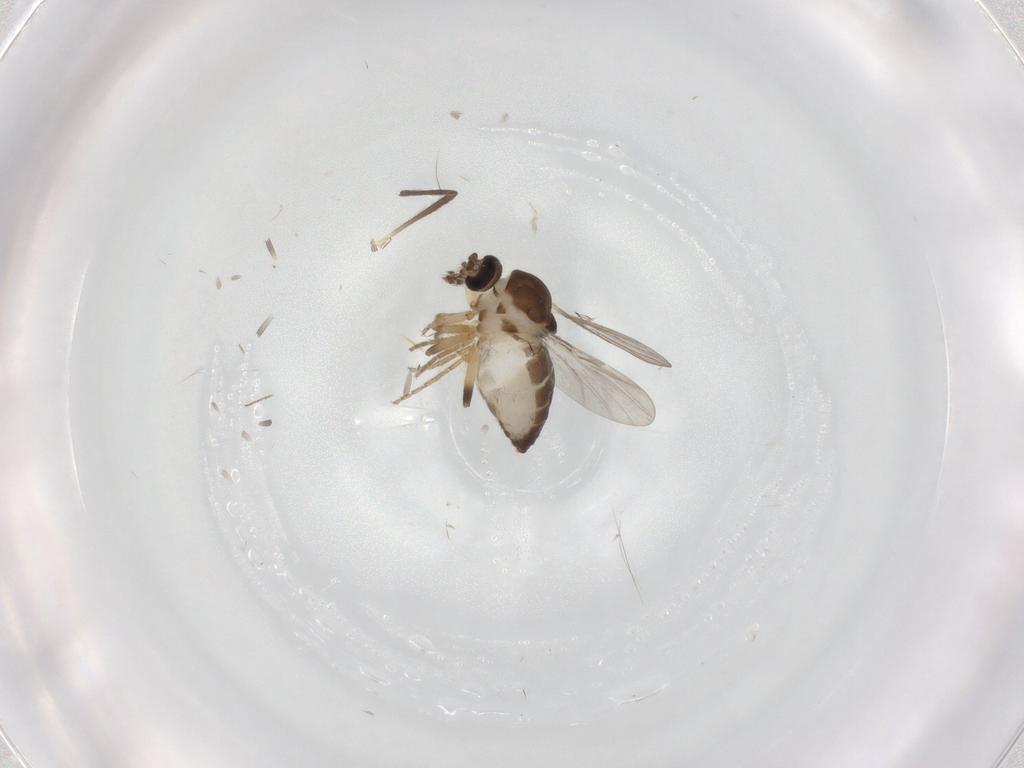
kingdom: Animalia
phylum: Arthropoda
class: Insecta
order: Diptera
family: Ceratopogonidae
